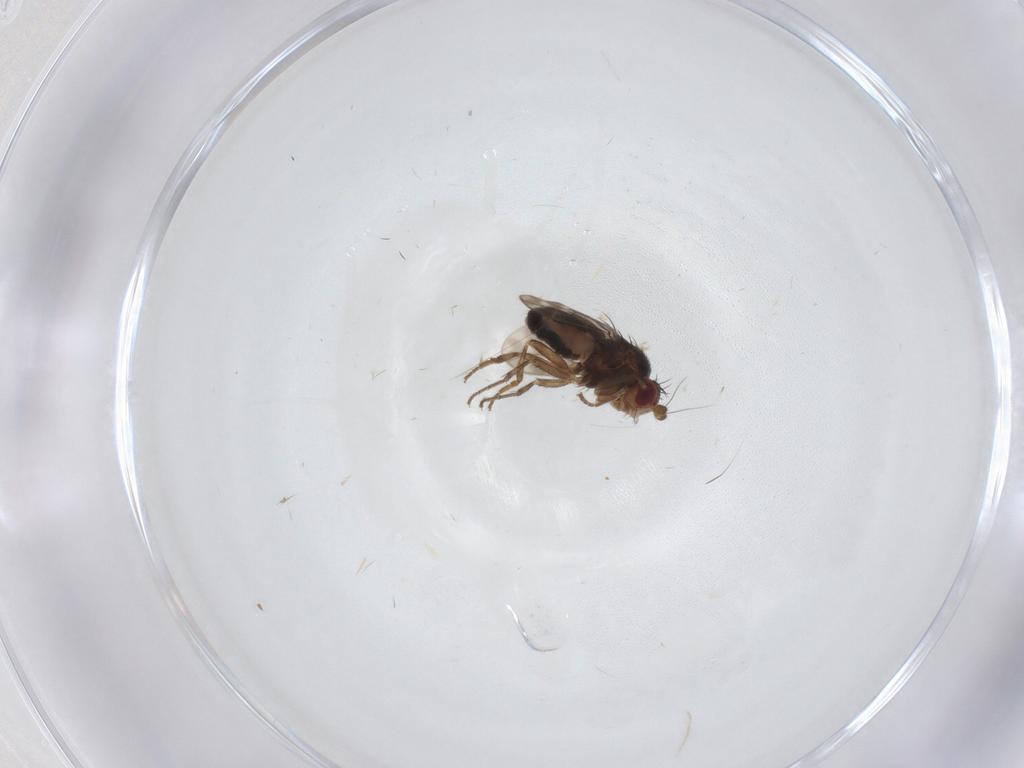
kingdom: Animalia
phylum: Arthropoda
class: Insecta
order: Diptera
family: Sphaeroceridae
